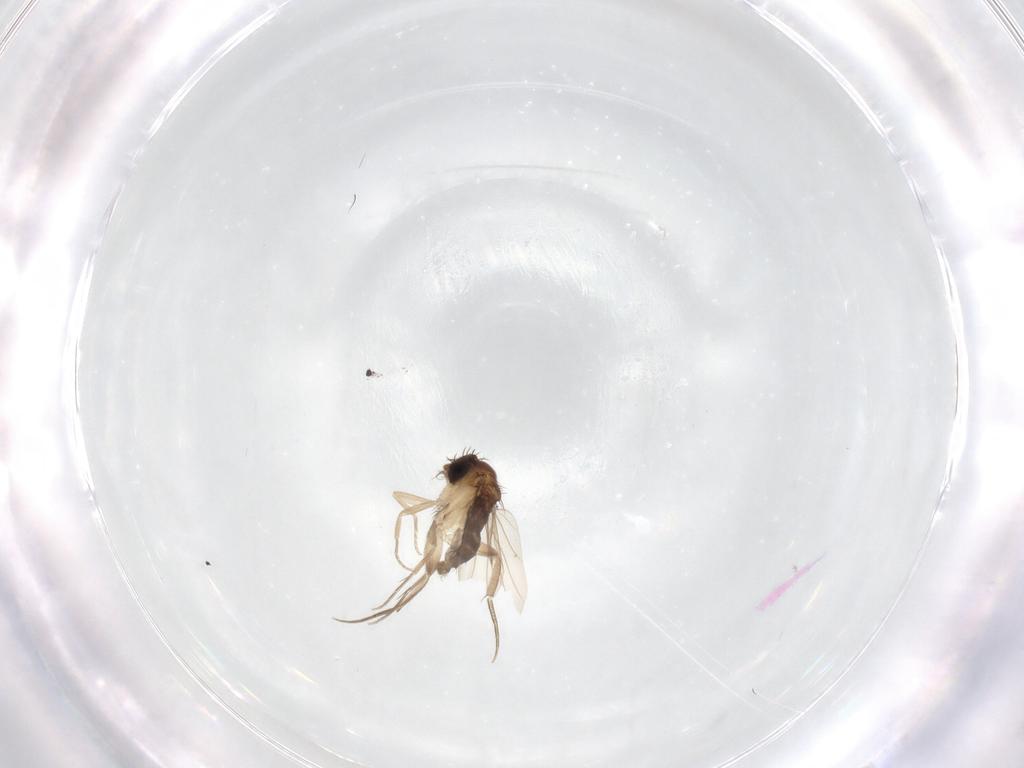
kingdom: Animalia
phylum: Arthropoda
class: Insecta
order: Diptera
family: Phoridae
